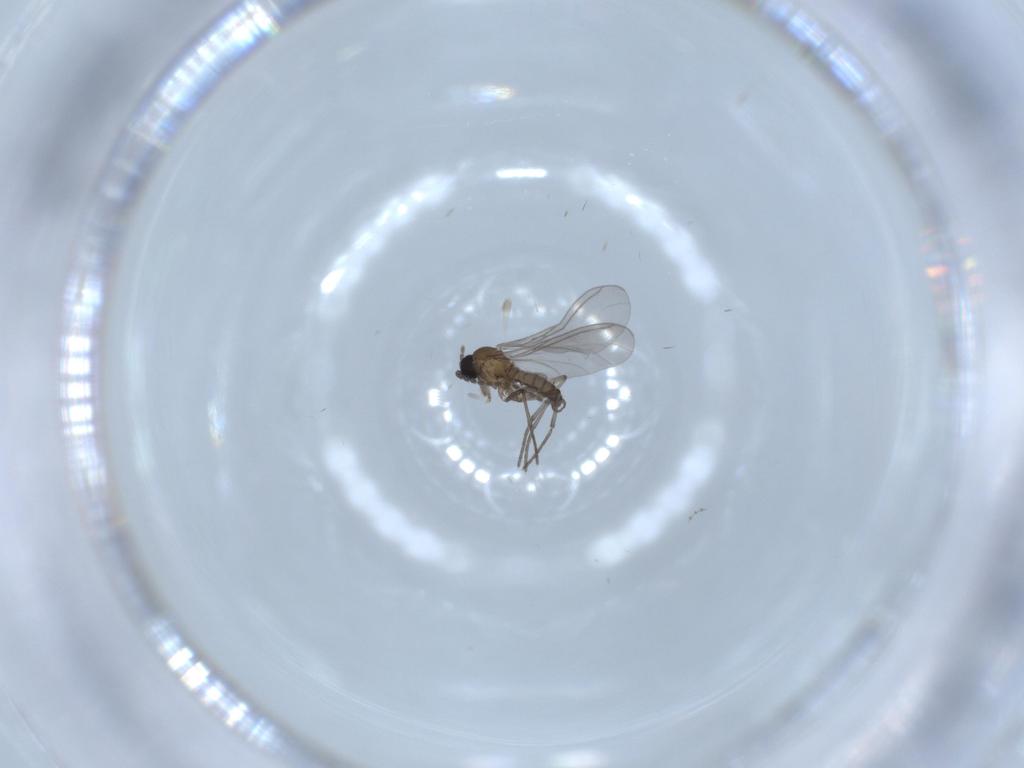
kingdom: Animalia
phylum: Arthropoda
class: Insecta
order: Diptera
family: Sciaridae
